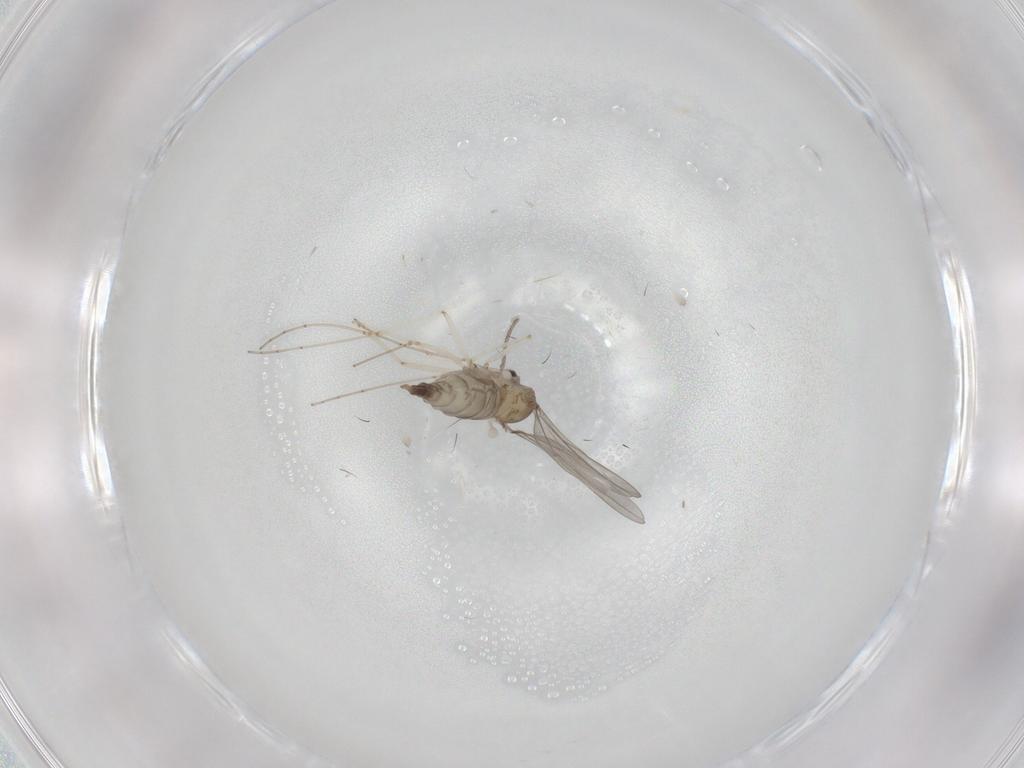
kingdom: Animalia
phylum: Arthropoda
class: Insecta
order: Diptera
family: Cecidomyiidae
